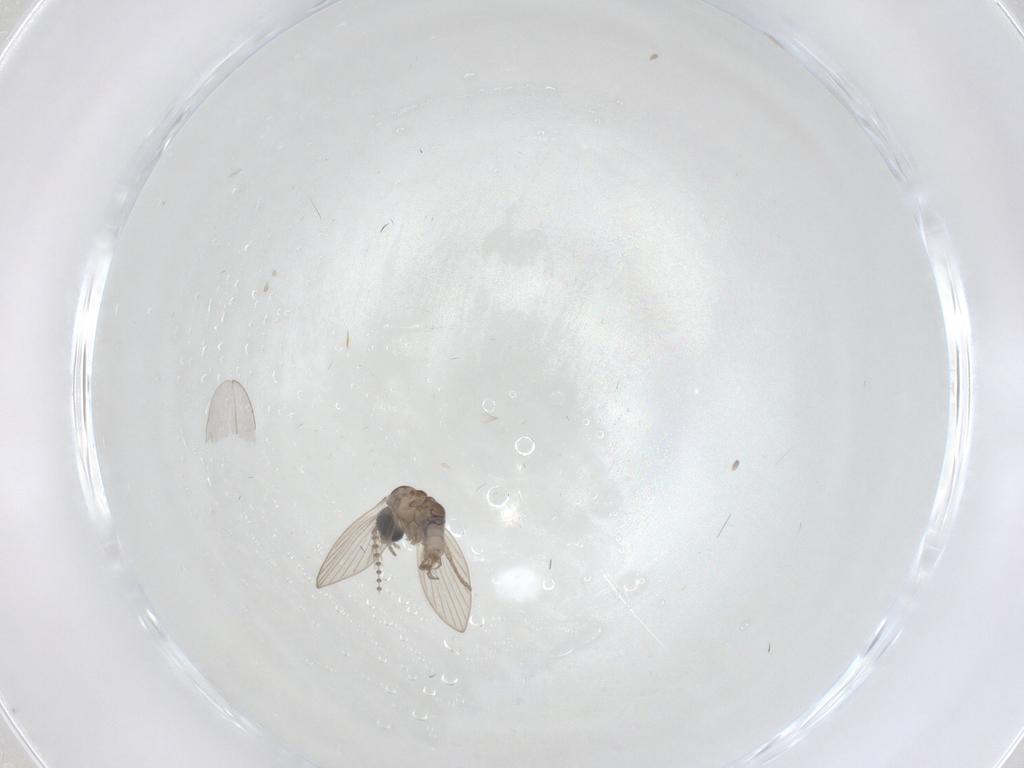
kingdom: Animalia
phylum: Arthropoda
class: Insecta
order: Diptera
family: Psychodidae
